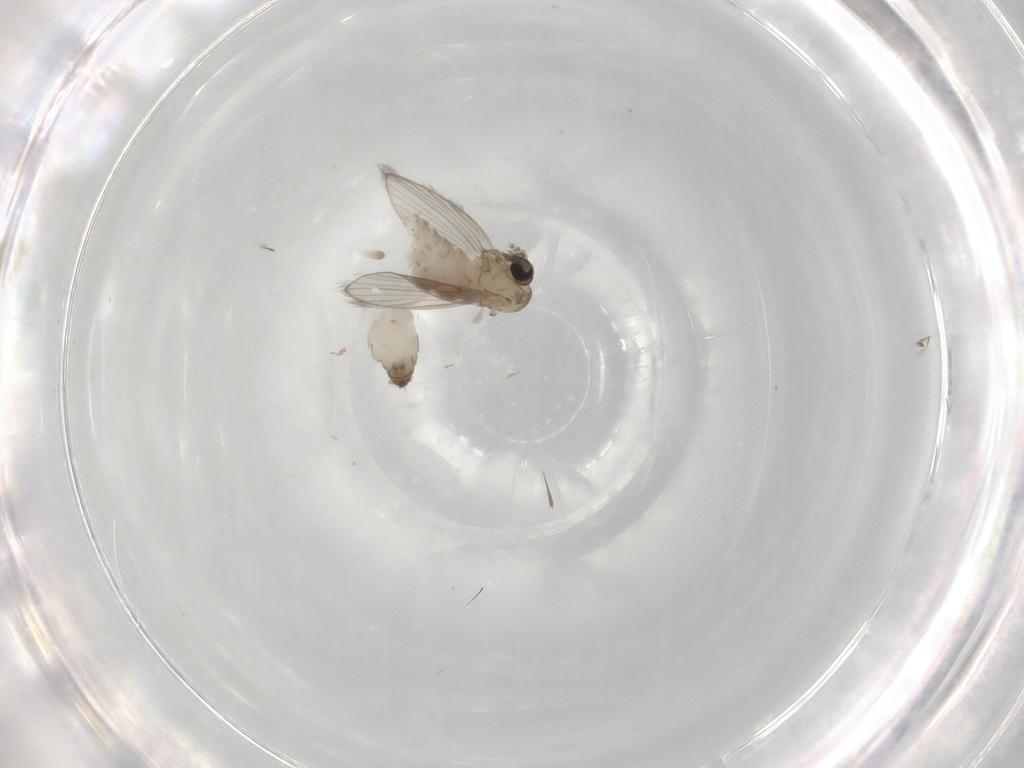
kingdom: Animalia
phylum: Arthropoda
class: Insecta
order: Diptera
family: Psychodidae
